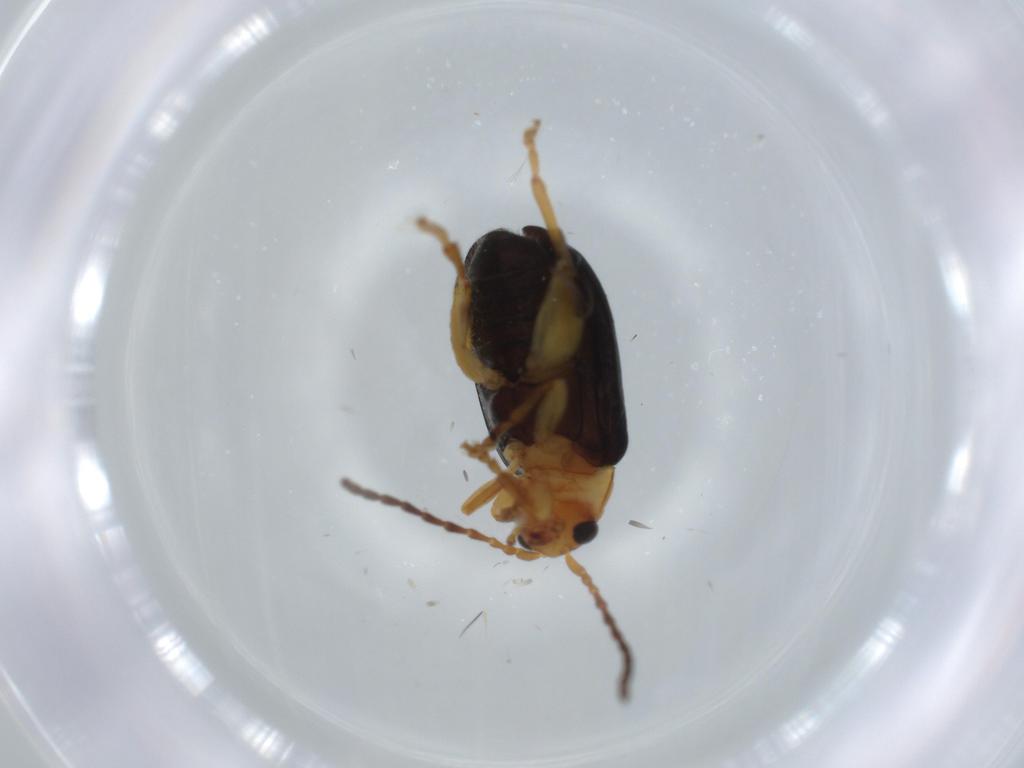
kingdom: Animalia
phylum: Arthropoda
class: Insecta
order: Coleoptera
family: Chrysomelidae
